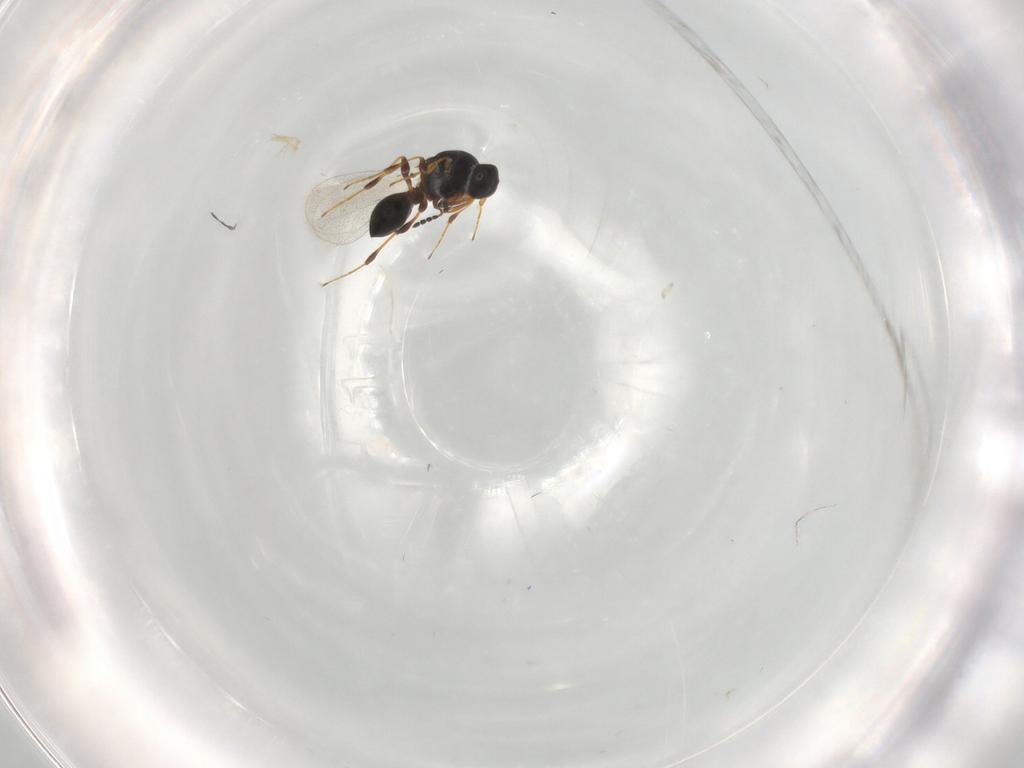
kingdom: Animalia
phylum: Arthropoda
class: Insecta
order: Hymenoptera
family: Platygastridae
